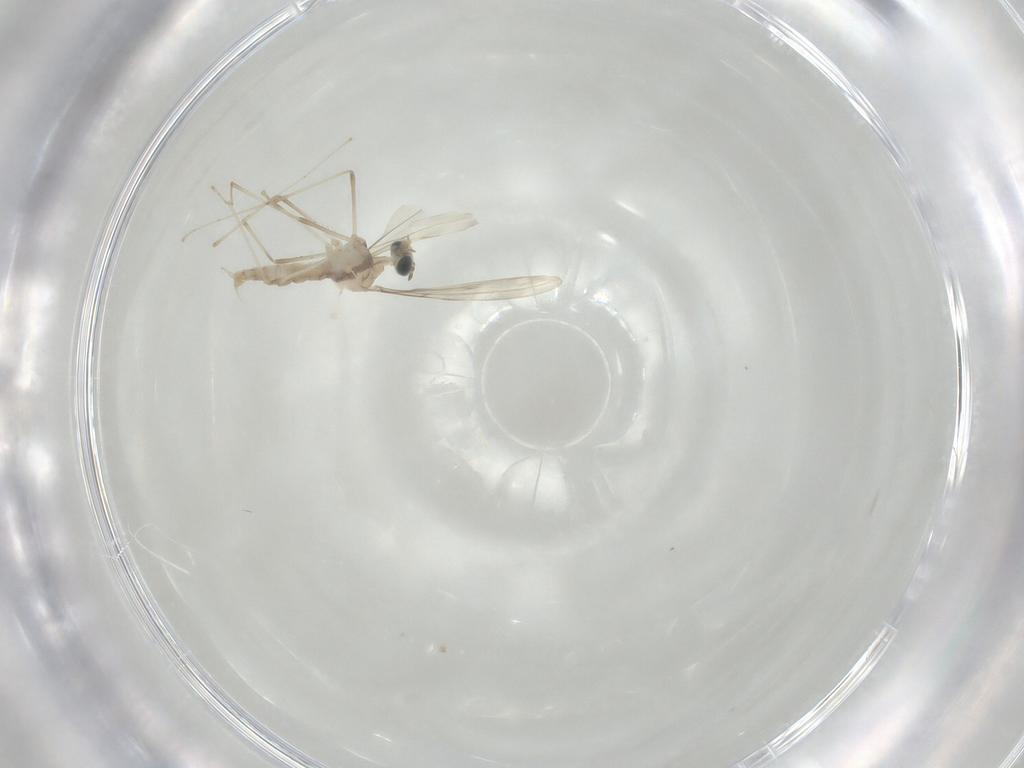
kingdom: Animalia
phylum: Arthropoda
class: Insecta
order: Diptera
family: Cecidomyiidae
